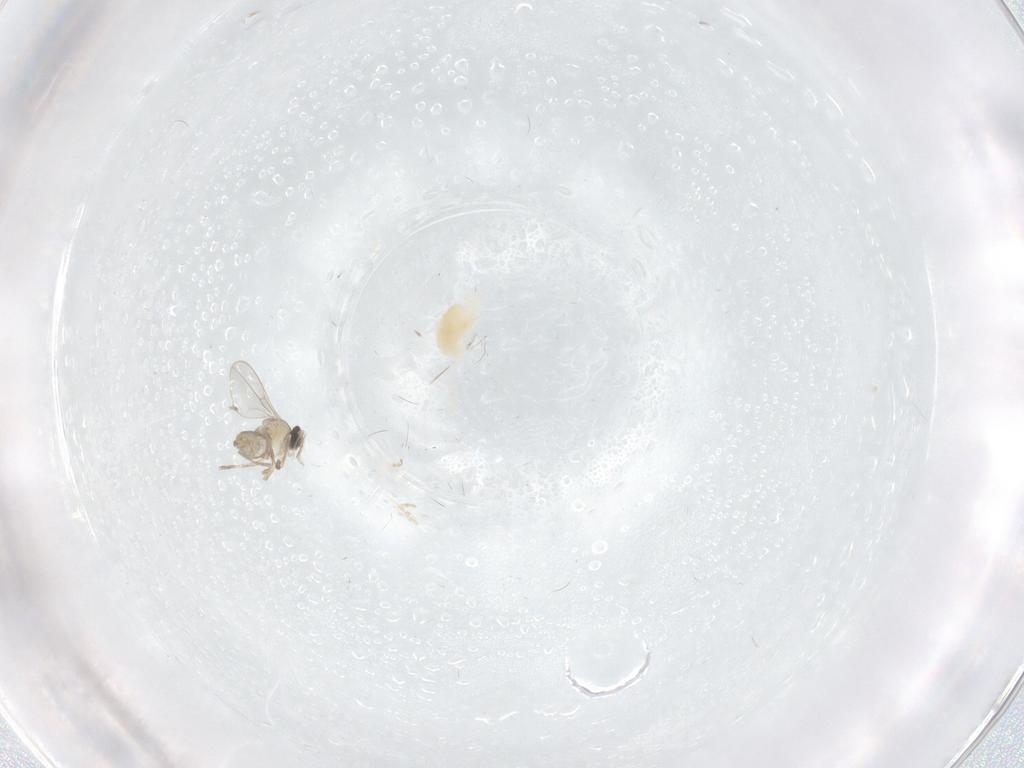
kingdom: Animalia
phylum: Arthropoda
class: Insecta
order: Diptera
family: Cecidomyiidae
